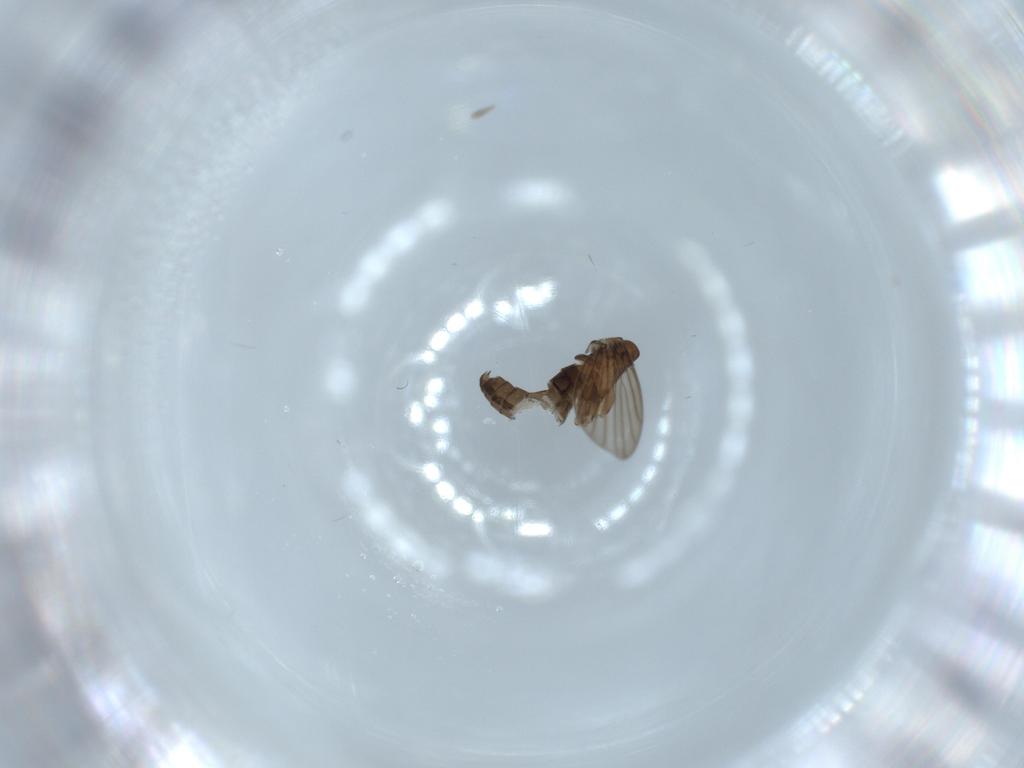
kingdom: Animalia
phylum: Arthropoda
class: Insecta
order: Diptera
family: Psychodidae
